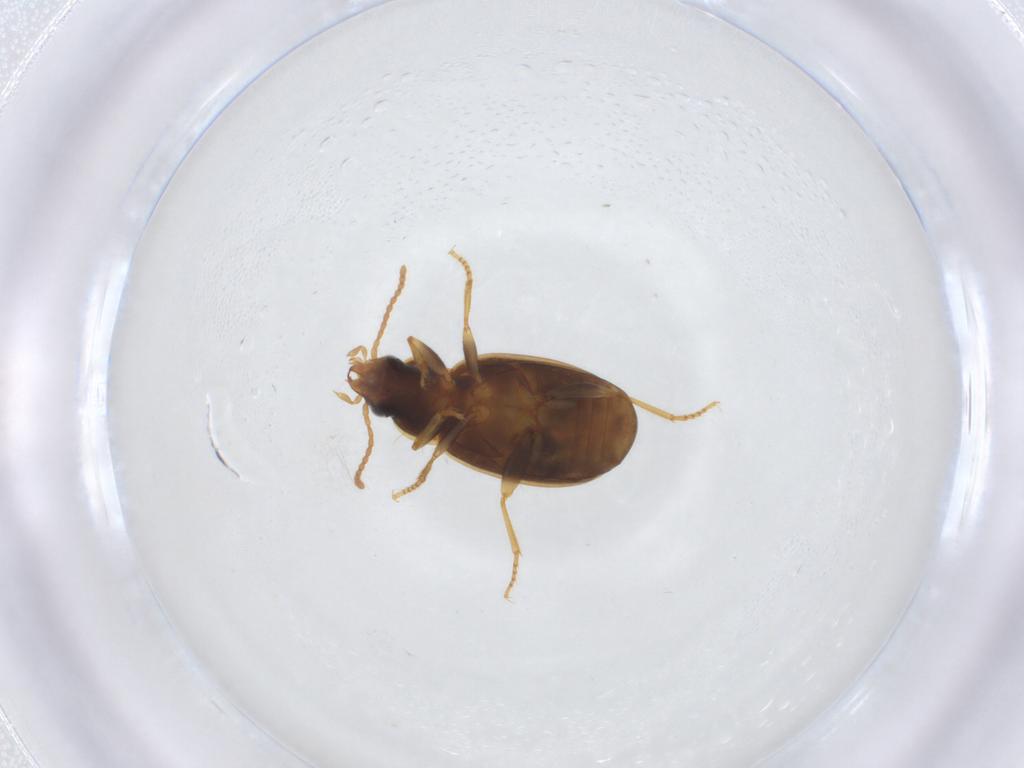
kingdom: Animalia
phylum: Arthropoda
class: Insecta
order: Coleoptera
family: Carabidae
